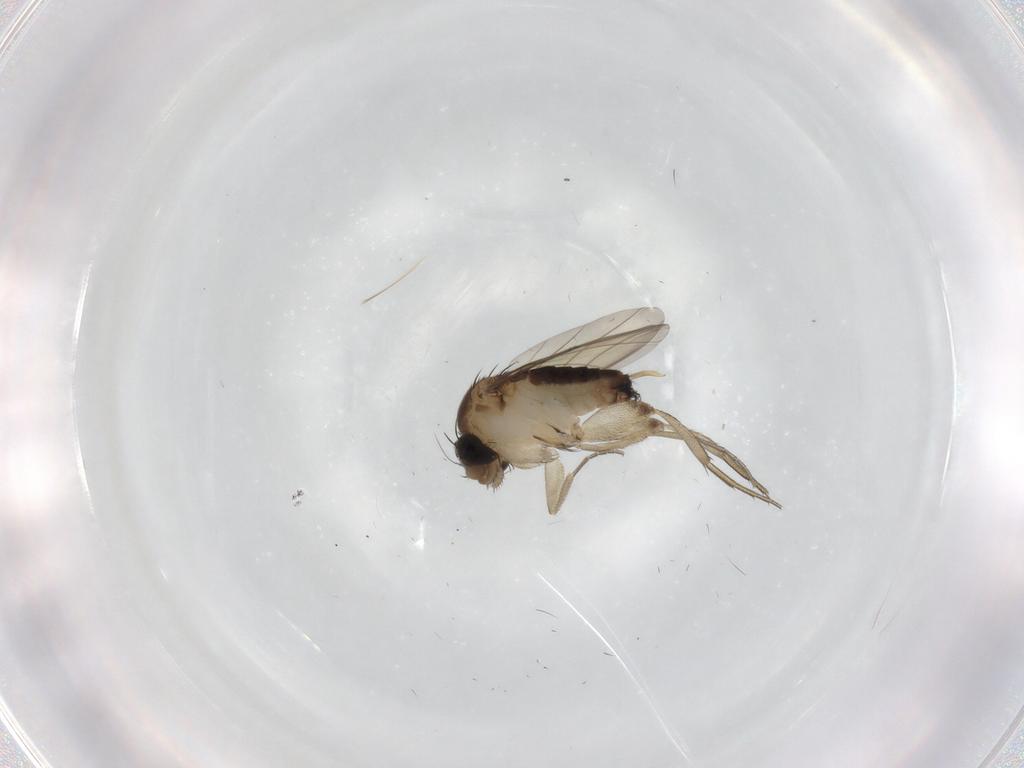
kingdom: Animalia
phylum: Arthropoda
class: Insecta
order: Diptera
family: Phoridae
